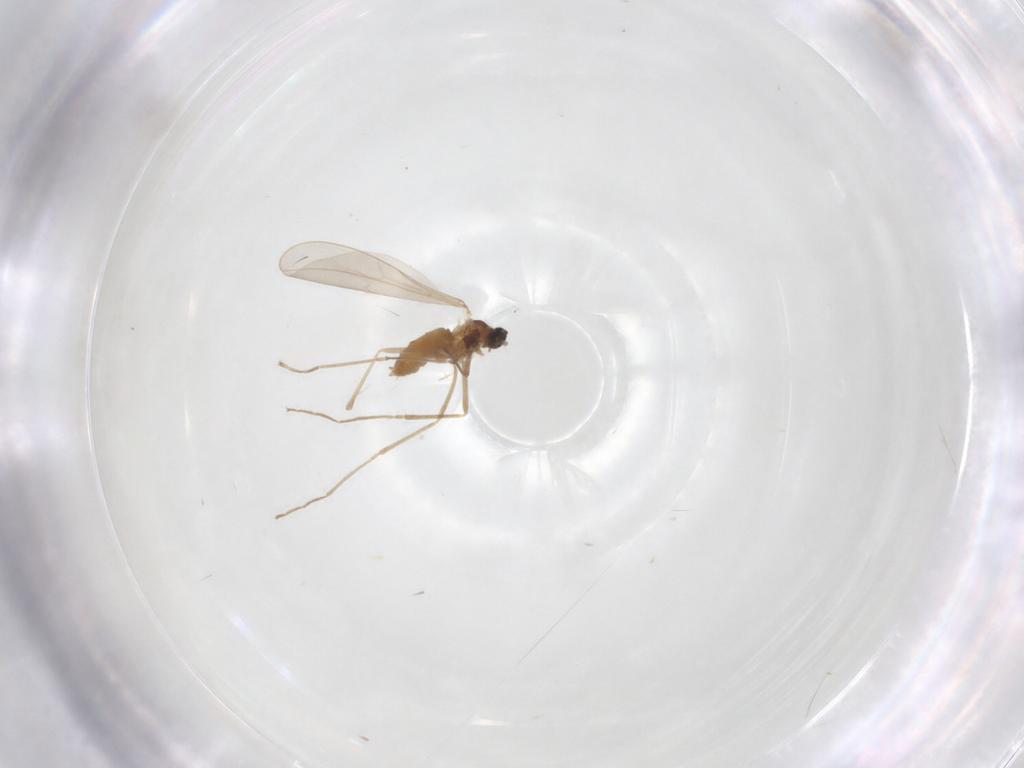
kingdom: Animalia
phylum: Arthropoda
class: Insecta
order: Diptera
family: Cecidomyiidae
